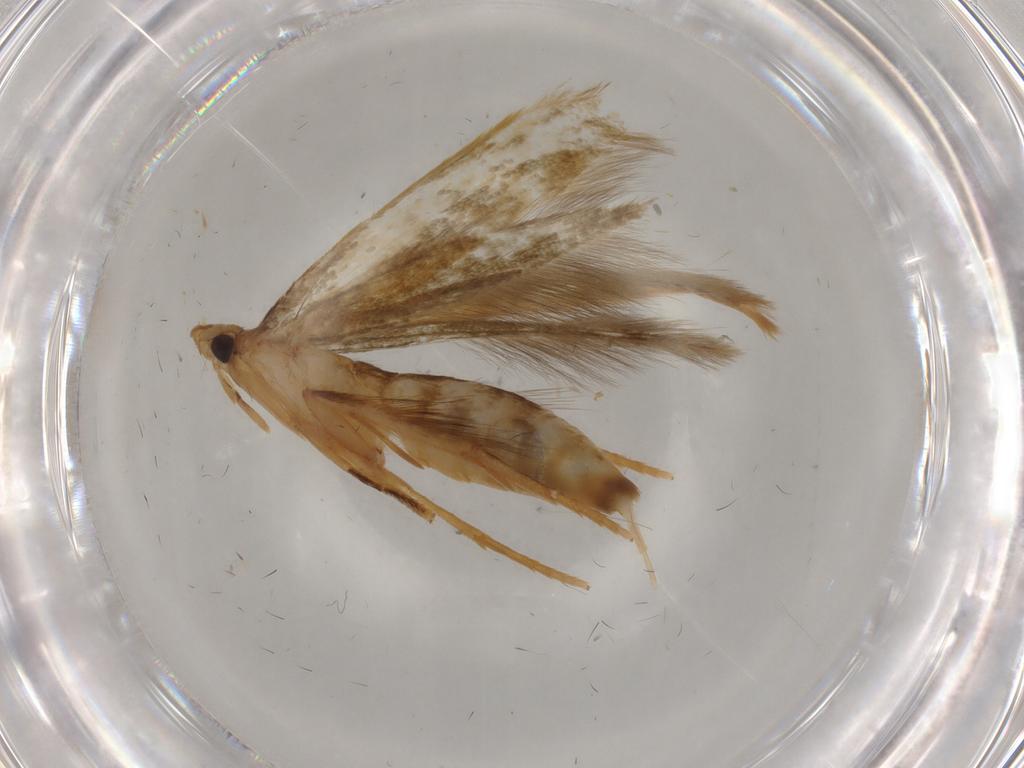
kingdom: Animalia
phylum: Arthropoda
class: Insecta
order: Lepidoptera
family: Tineidae
